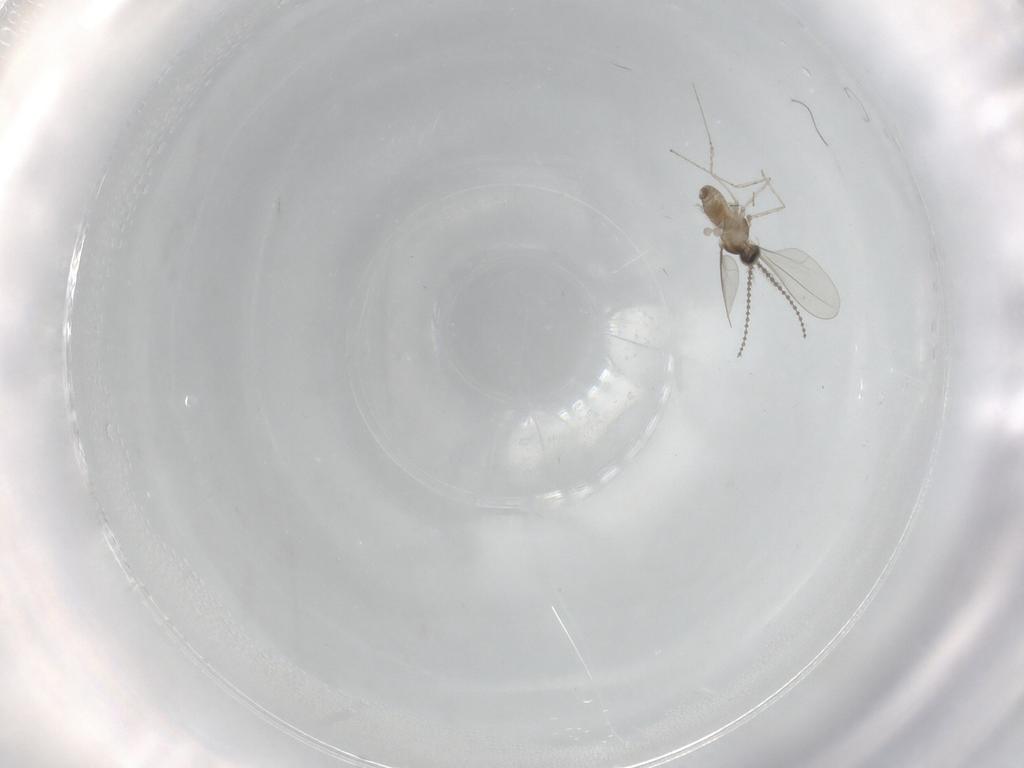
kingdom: Animalia
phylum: Arthropoda
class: Insecta
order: Diptera
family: Cecidomyiidae
